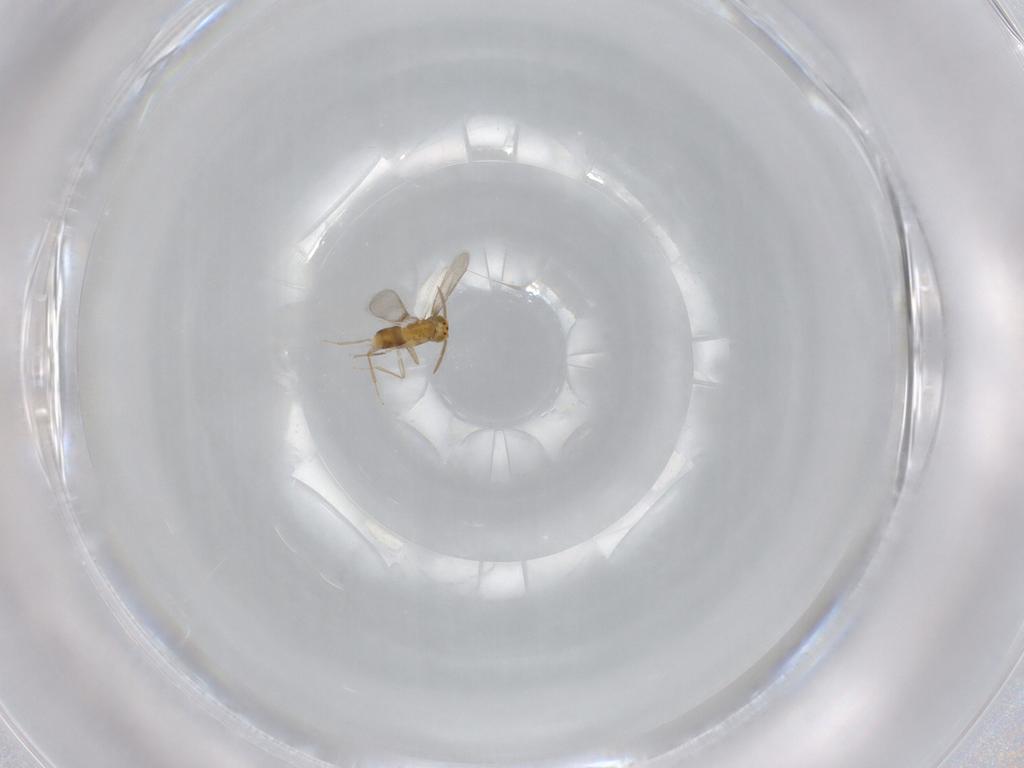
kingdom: Animalia
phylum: Arthropoda
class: Insecta
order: Hymenoptera
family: Aphelinidae
